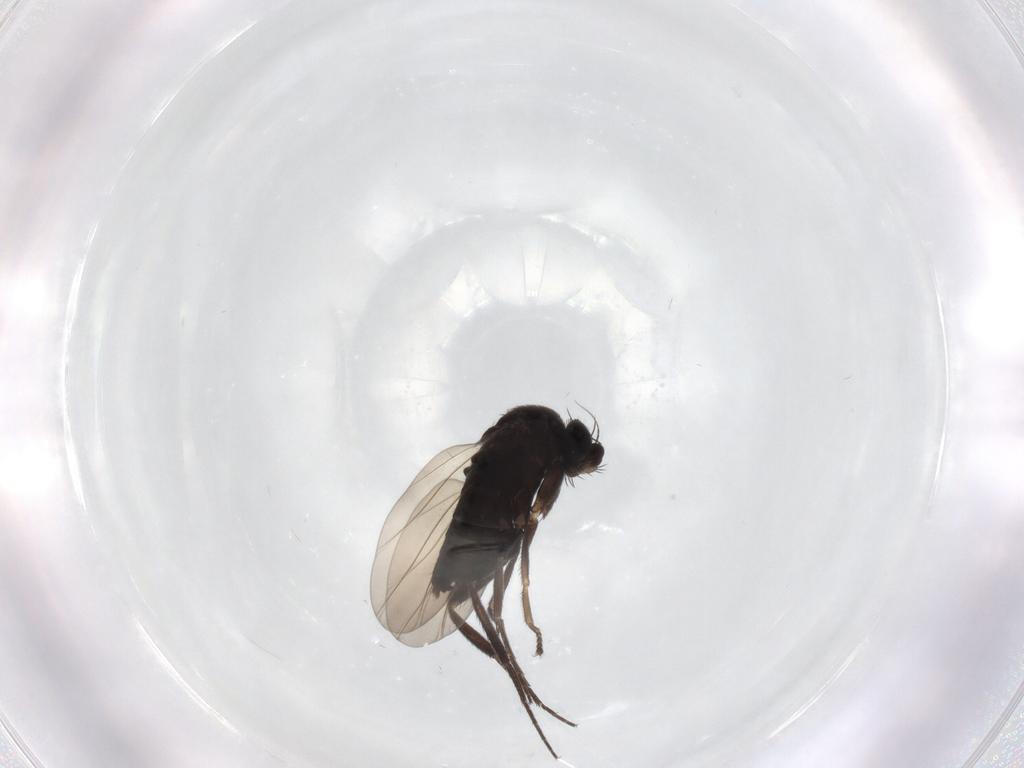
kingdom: Animalia
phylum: Arthropoda
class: Insecta
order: Diptera
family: Phoridae
